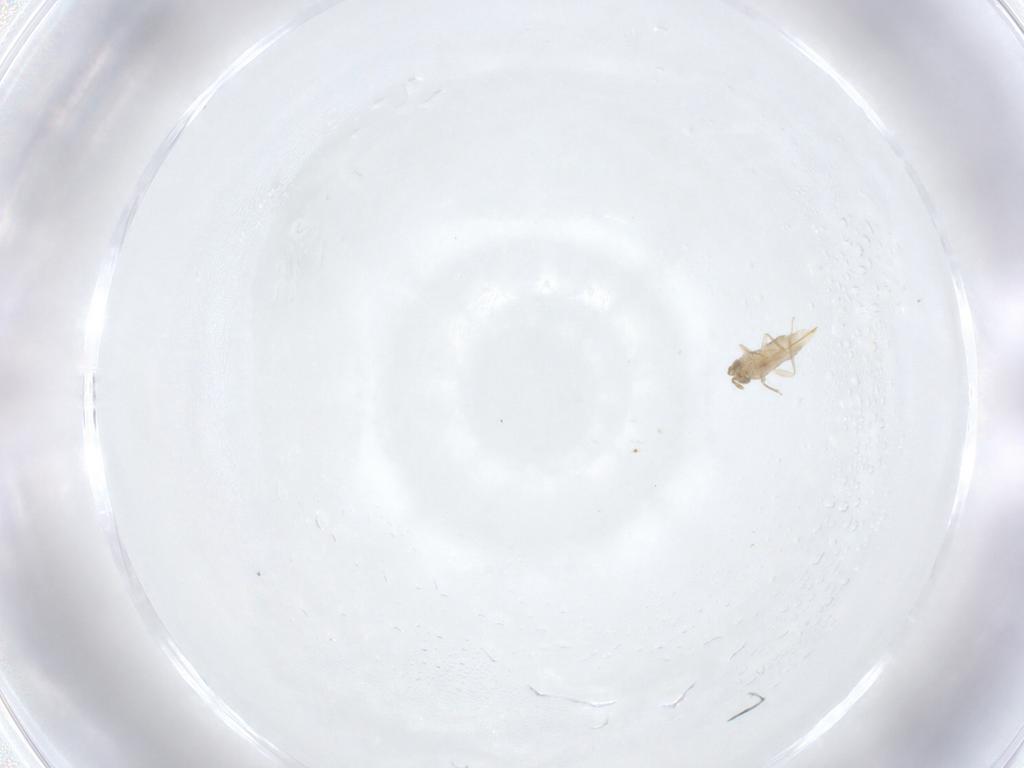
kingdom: Animalia
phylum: Arthropoda
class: Insecta
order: Hymenoptera
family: Aphelinidae
